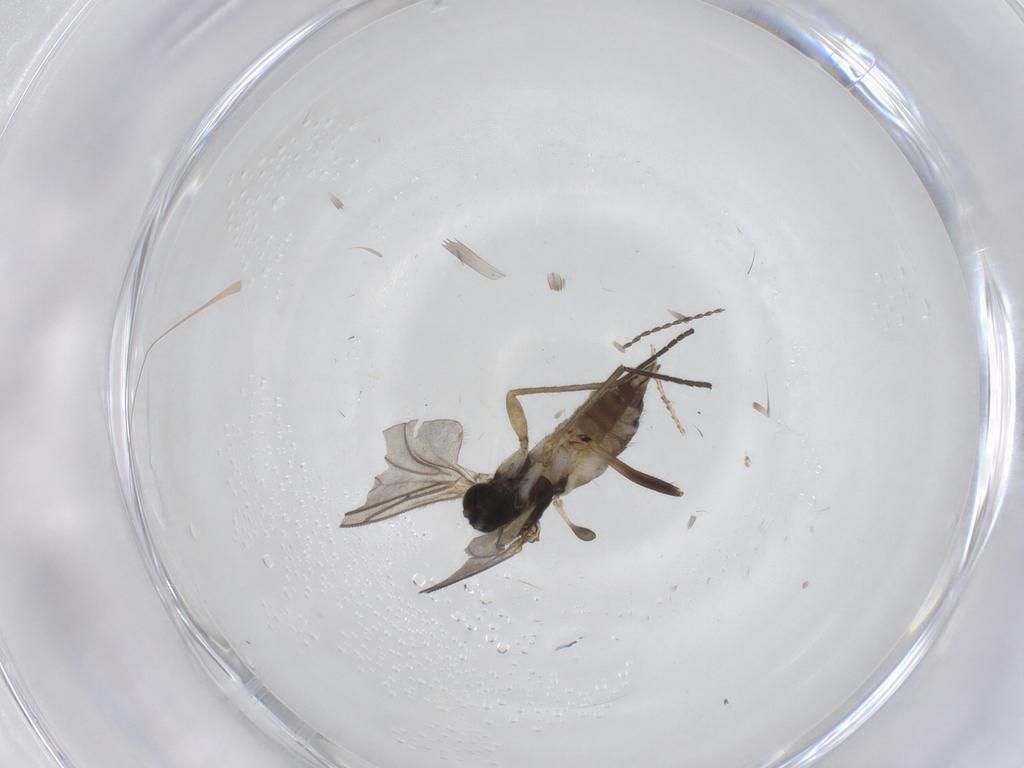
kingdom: Animalia
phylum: Arthropoda
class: Insecta
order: Diptera
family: Sciaridae
